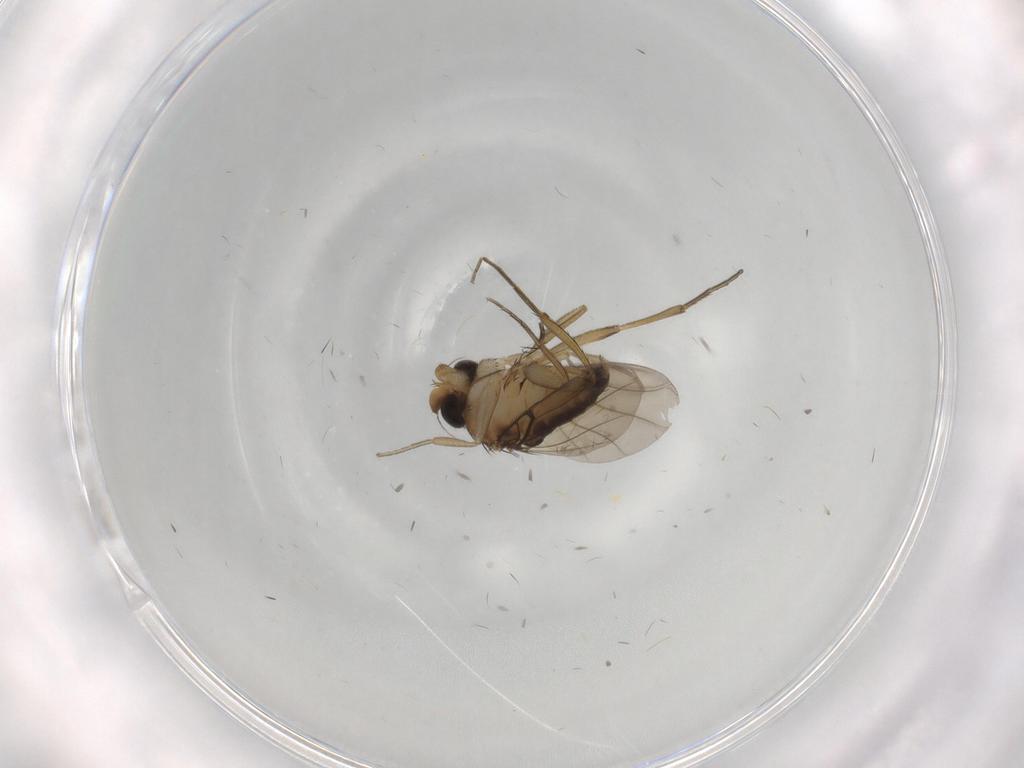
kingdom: Animalia
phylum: Arthropoda
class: Insecta
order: Diptera
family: Phoridae
